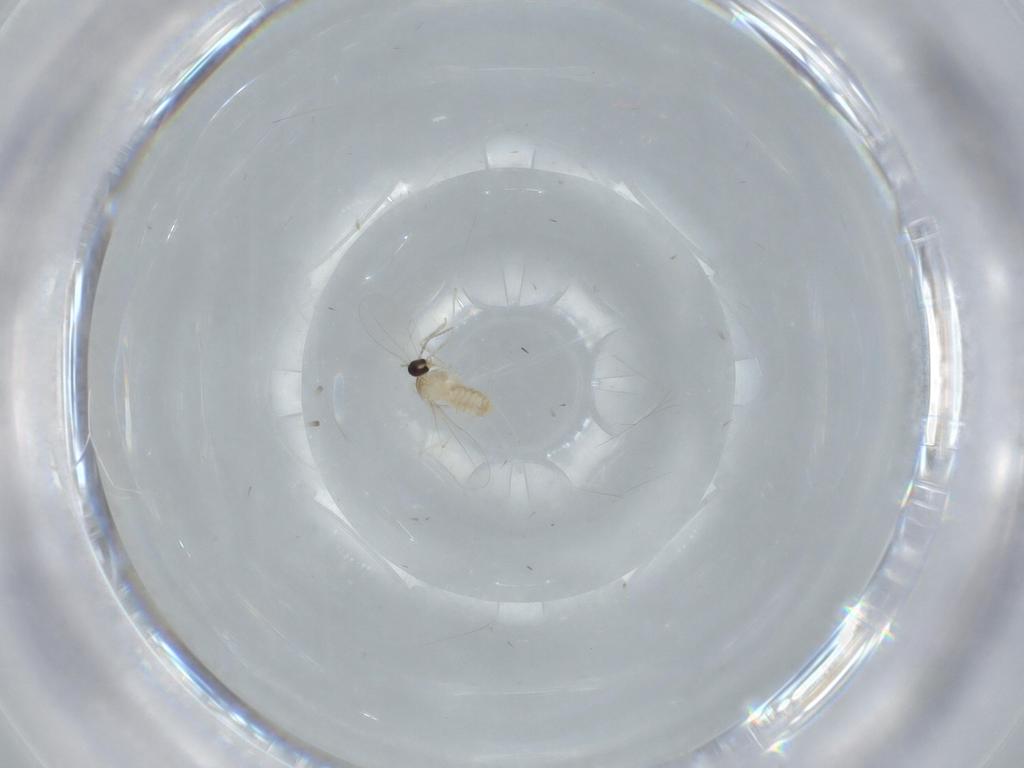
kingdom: Animalia
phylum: Arthropoda
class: Insecta
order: Diptera
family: Cecidomyiidae
